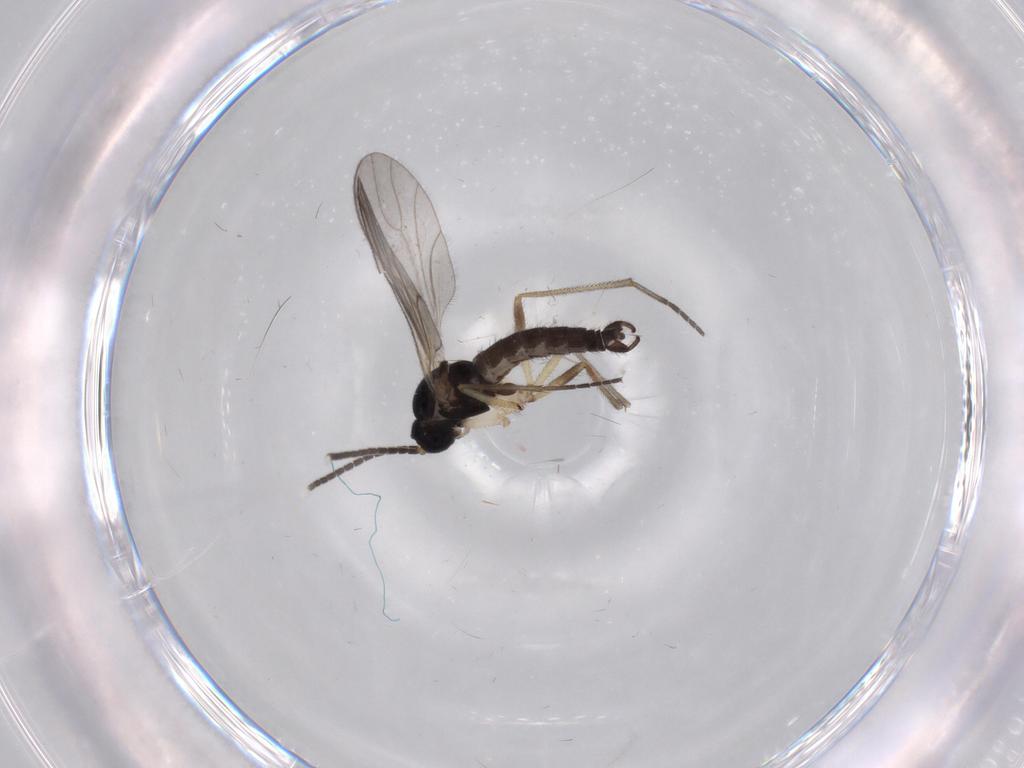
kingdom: Animalia
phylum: Arthropoda
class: Insecta
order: Diptera
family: Sciaridae
